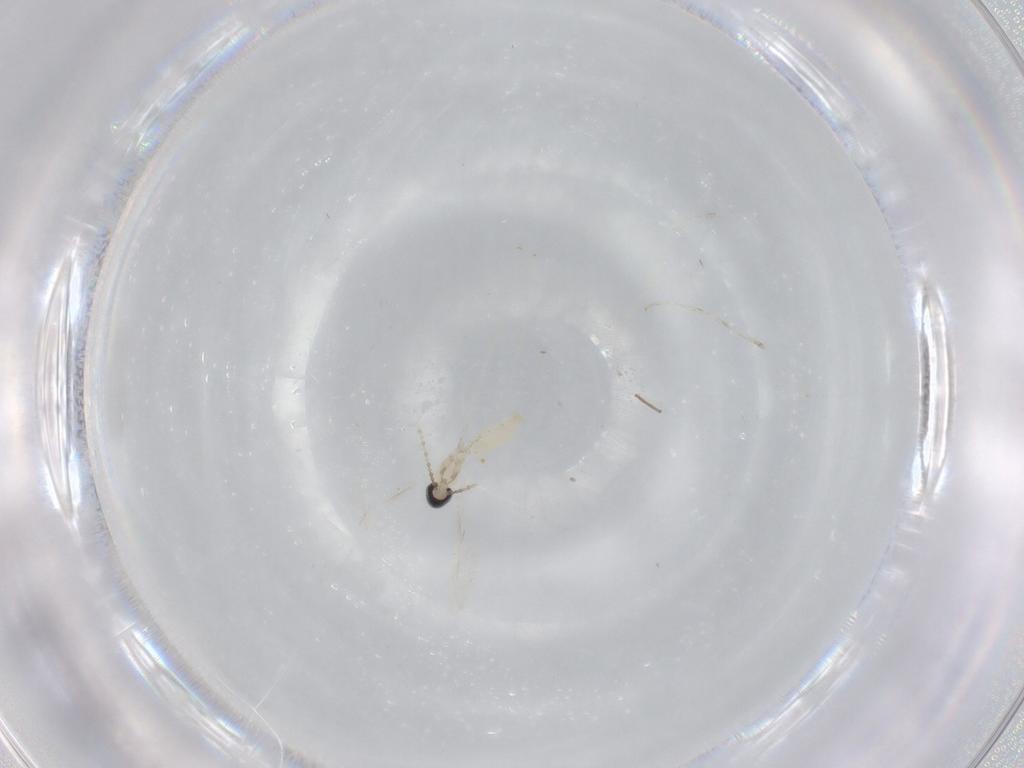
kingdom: Animalia
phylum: Arthropoda
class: Insecta
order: Diptera
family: Cecidomyiidae
